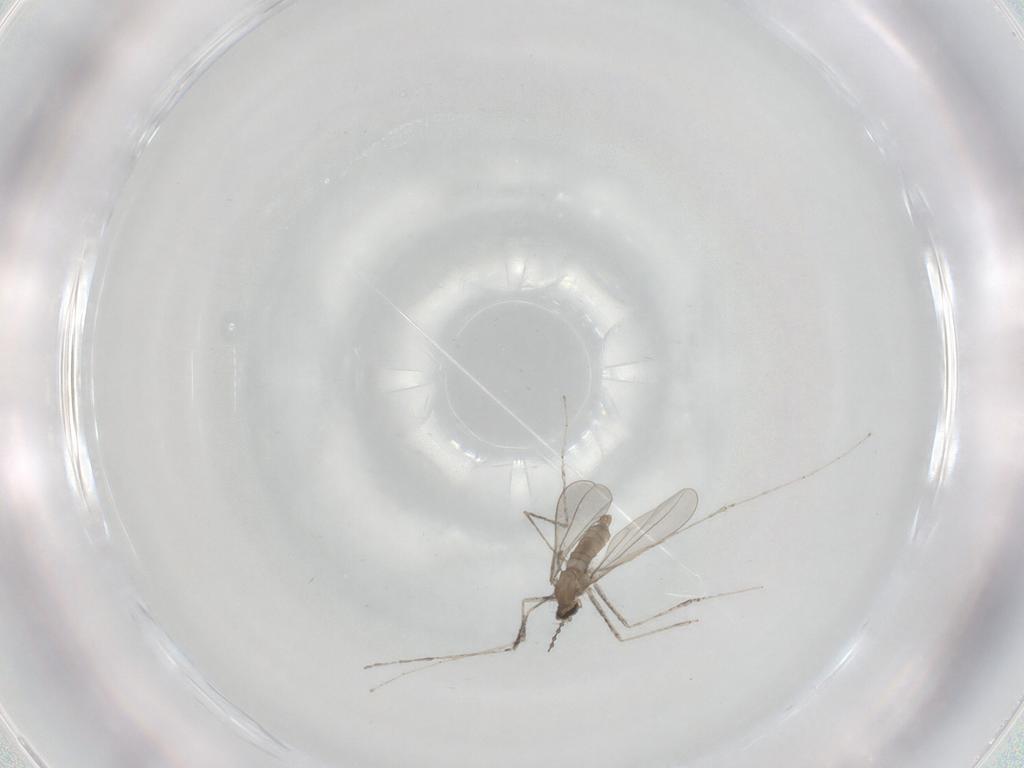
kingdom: Animalia
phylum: Arthropoda
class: Insecta
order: Diptera
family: Cecidomyiidae
